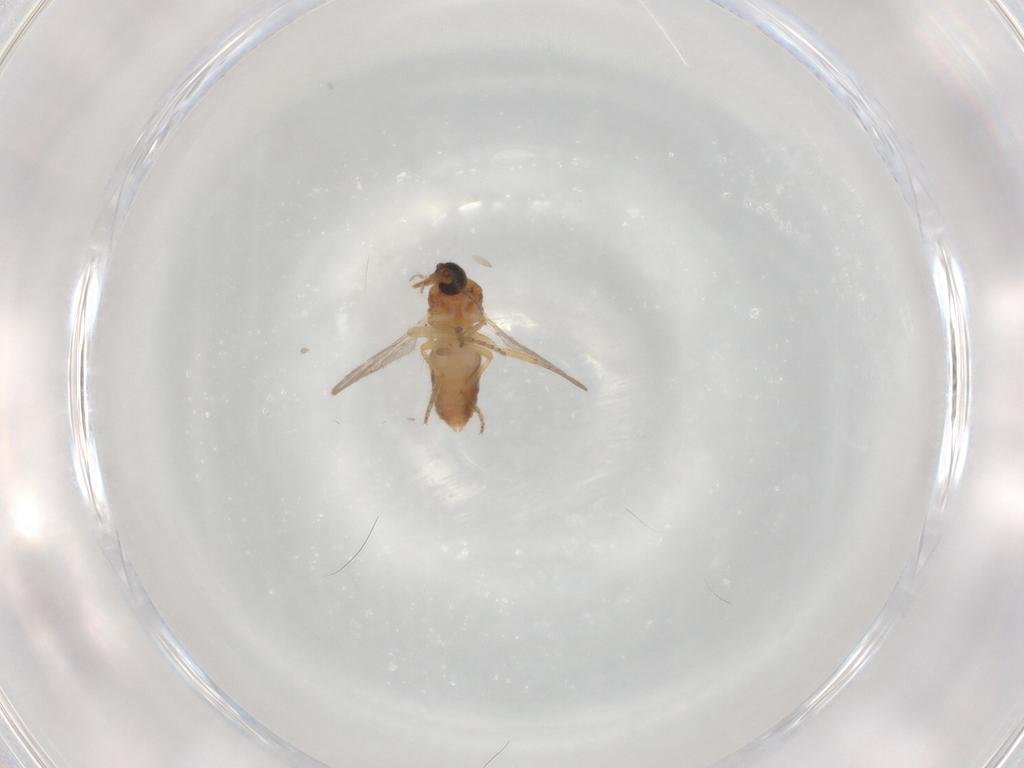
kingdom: Animalia
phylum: Arthropoda
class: Insecta
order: Diptera
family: Ceratopogonidae
